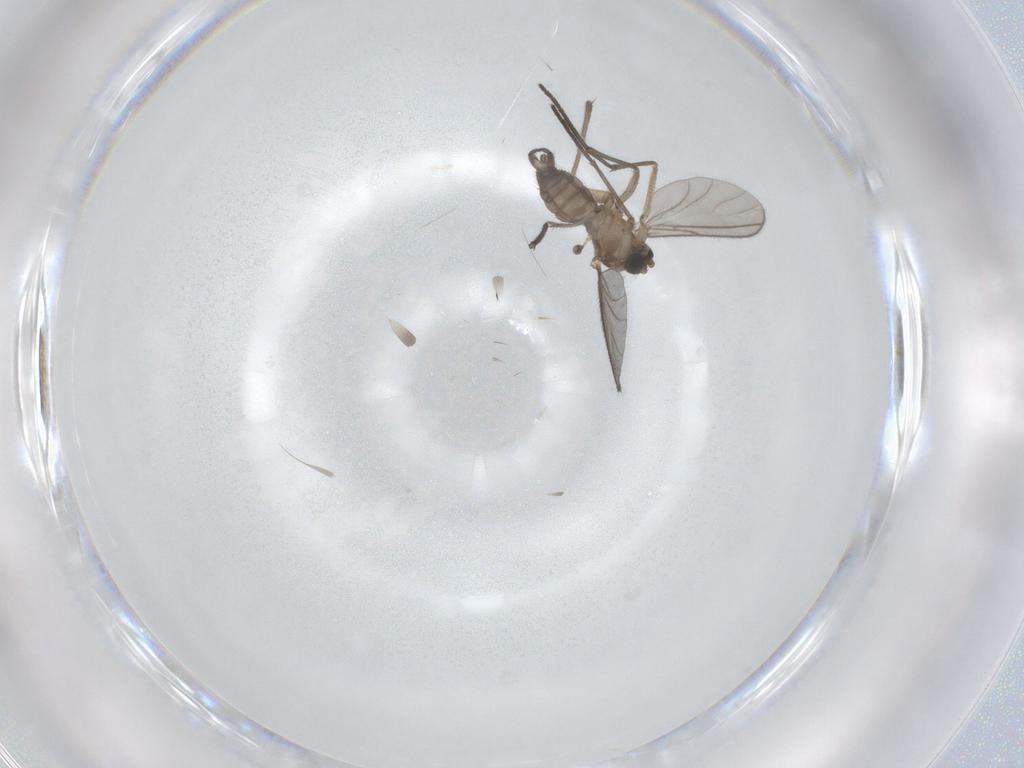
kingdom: Animalia
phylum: Arthropoda
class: Insecta
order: Diptera
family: Sciaridae
